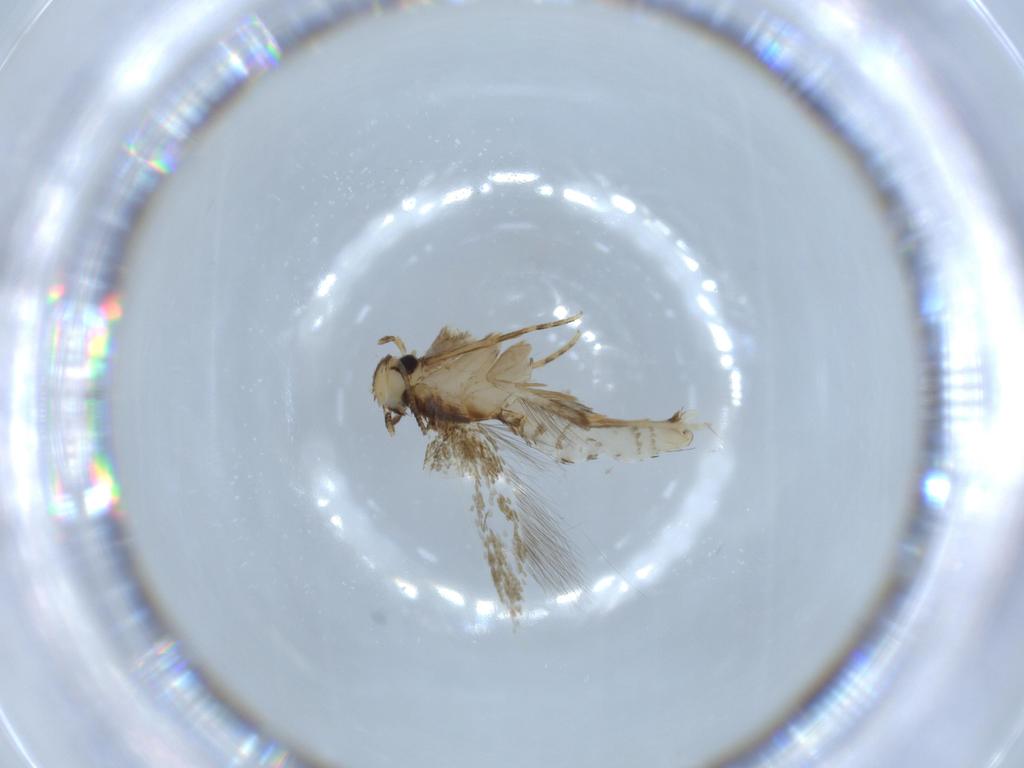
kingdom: Animalia
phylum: Arthropoda
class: Insecta
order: Lepidoptera
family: Tineidae
